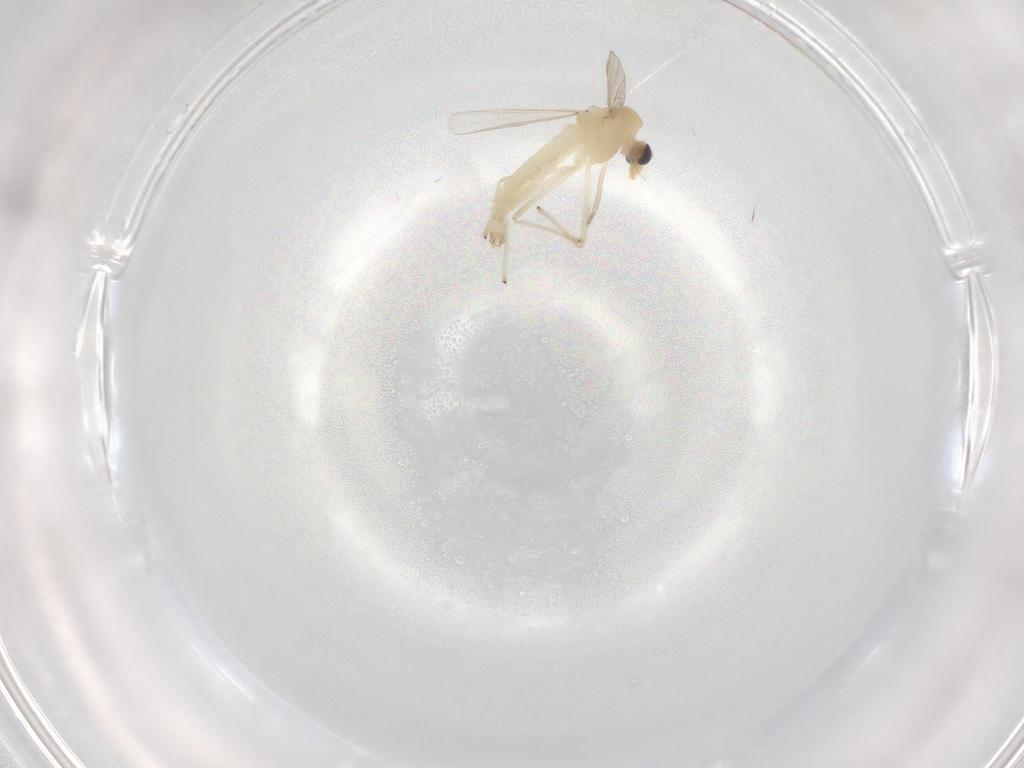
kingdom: Animalia
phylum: Arthropoda
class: Insecta
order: Diptera
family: Chironomidae
